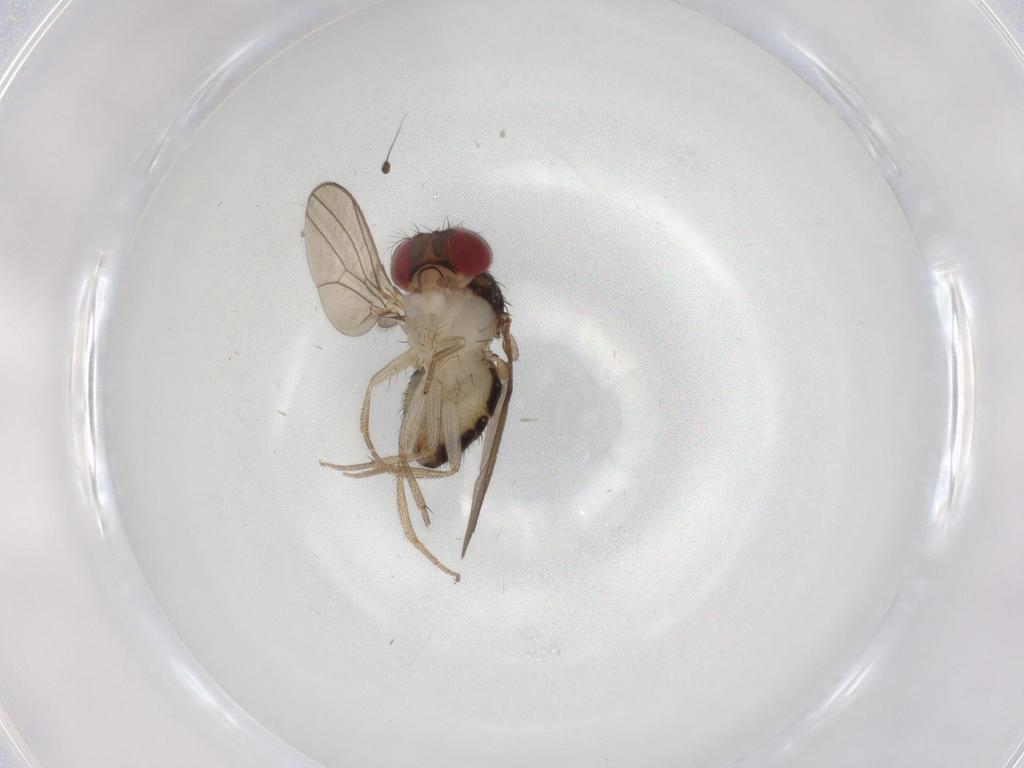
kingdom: Animalia
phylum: Arthropoda
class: Insecta
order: Diptera
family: Drosophilidae
